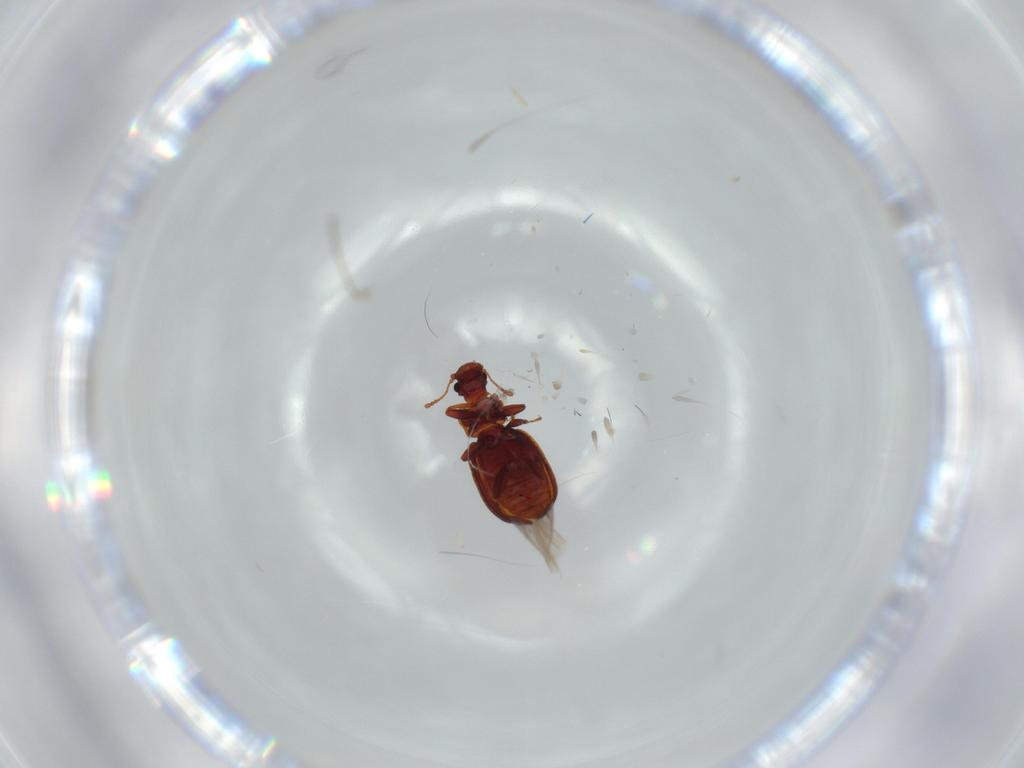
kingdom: Animalia
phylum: Arthropoda
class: Insecta
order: Coleoptera
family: Latridiidae
